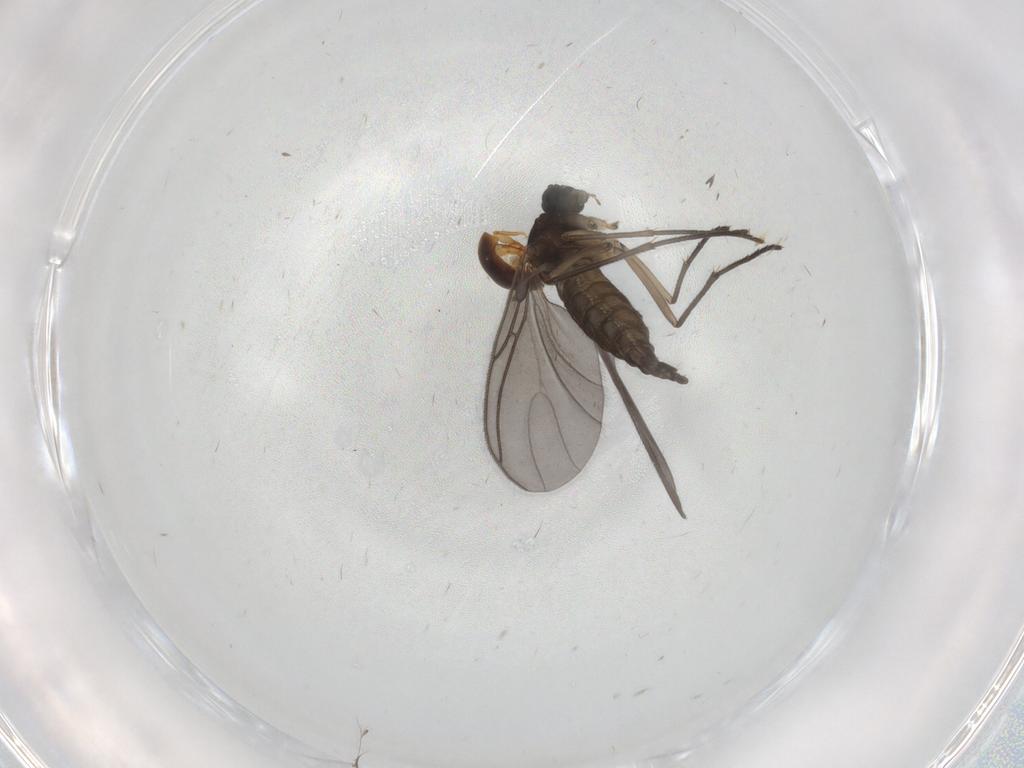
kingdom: Animalia
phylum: Arthropoda
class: Insecta
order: Diptera
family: Sciaridae
